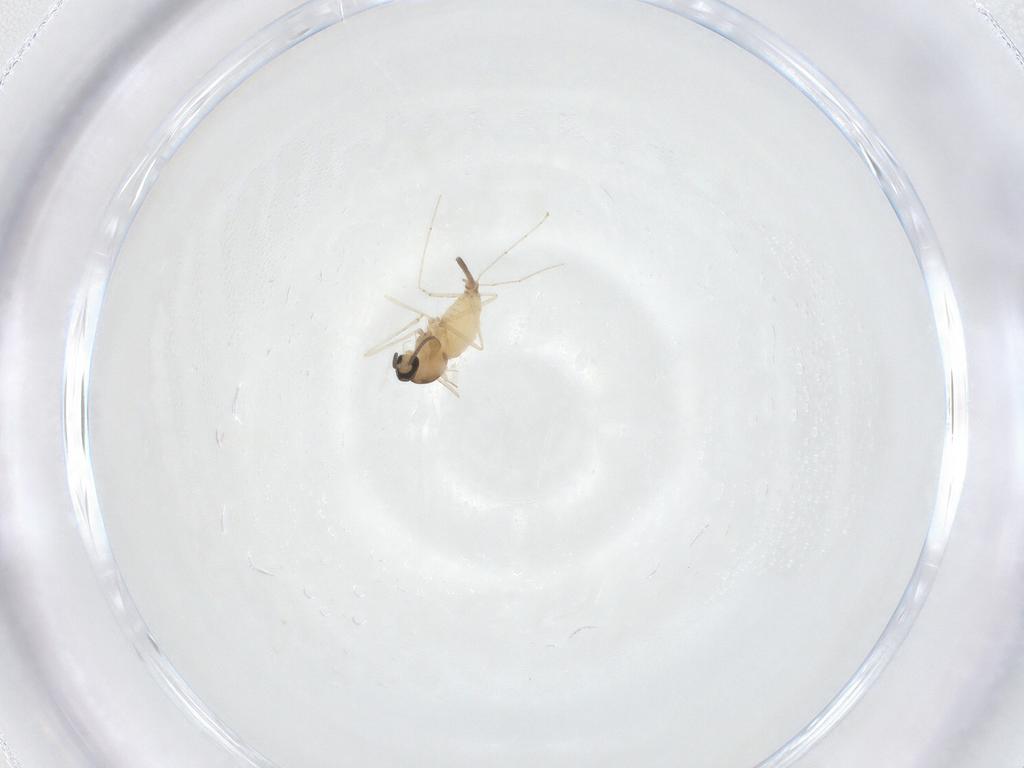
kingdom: Animalia
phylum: Arthropoda
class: Insecta
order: Diptera
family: Cecidomyiidae
